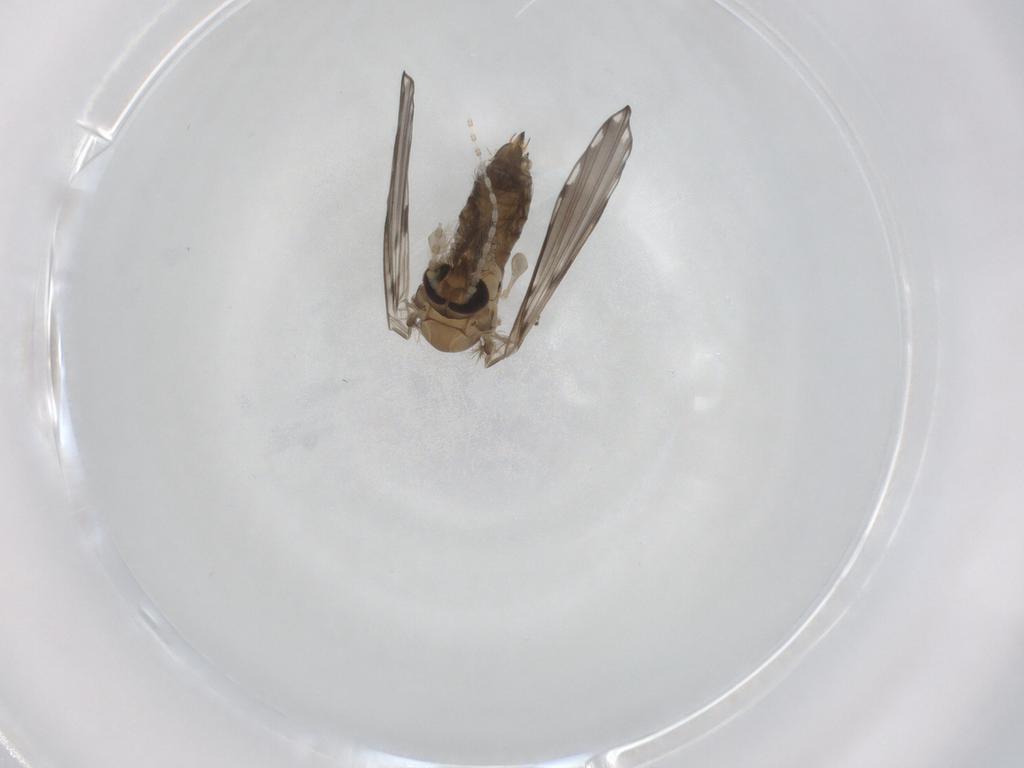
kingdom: Animalia
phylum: Arthropoda
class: Insecta
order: Diptera
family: Psychodidae
